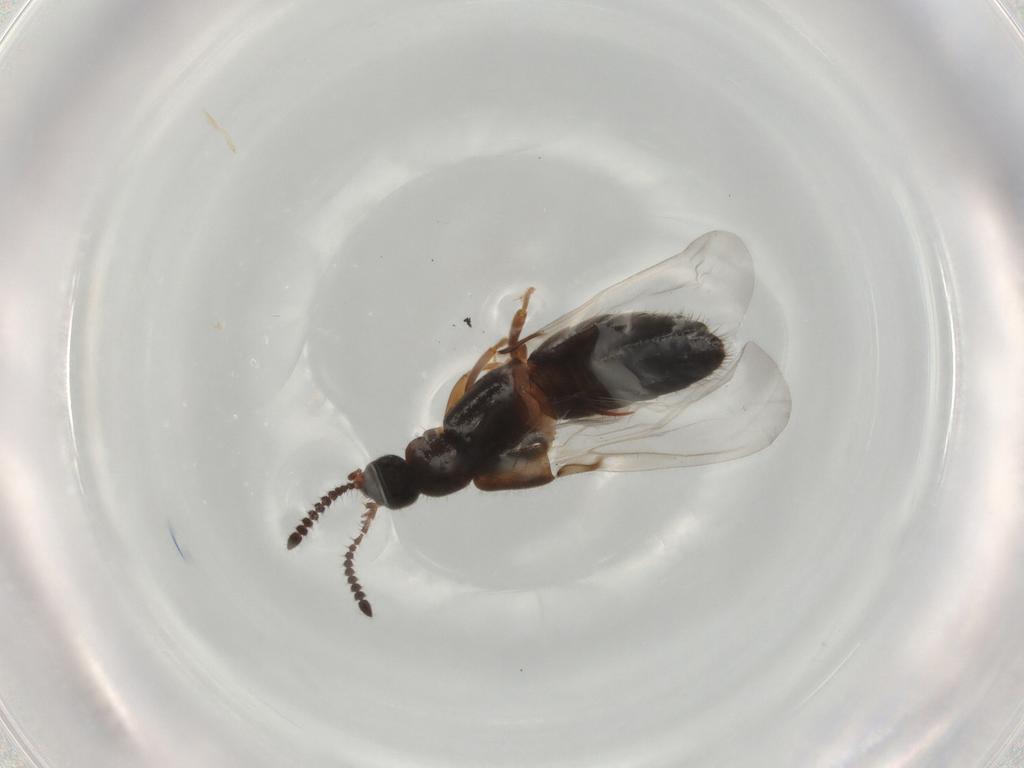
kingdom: Animalia
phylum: Arthropoda
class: Insecta
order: Coleoptera
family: Staphylinidae
